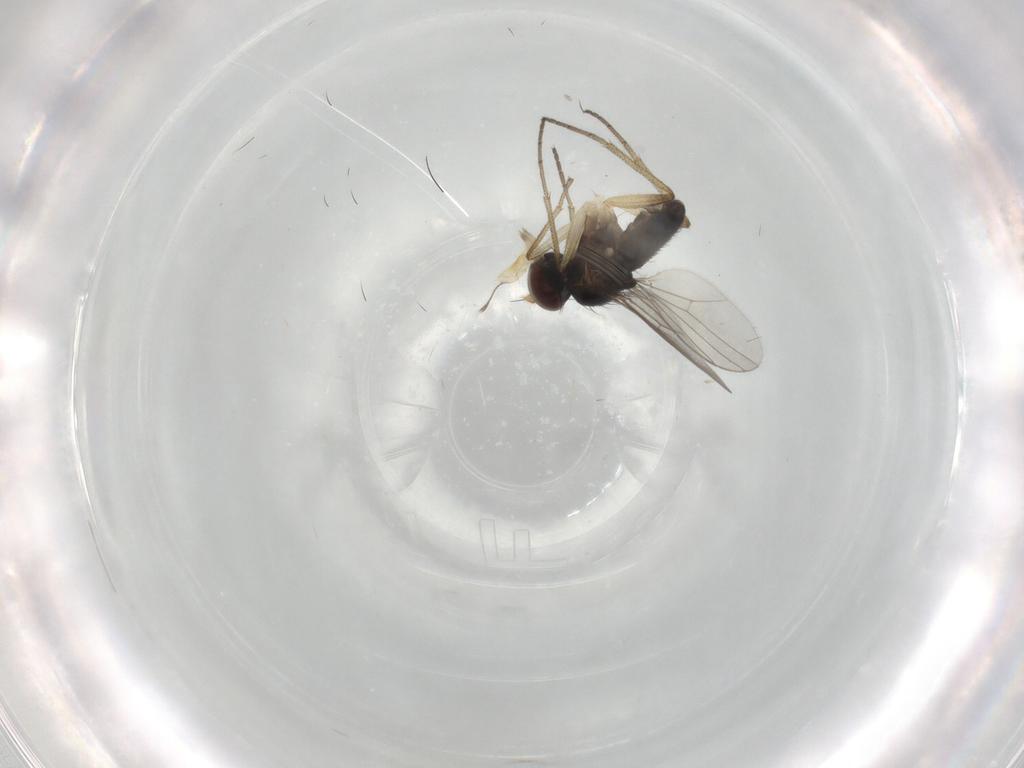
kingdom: Animalia
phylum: Arthropoda
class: Insecta
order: Diptera
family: Dolichopodidae
